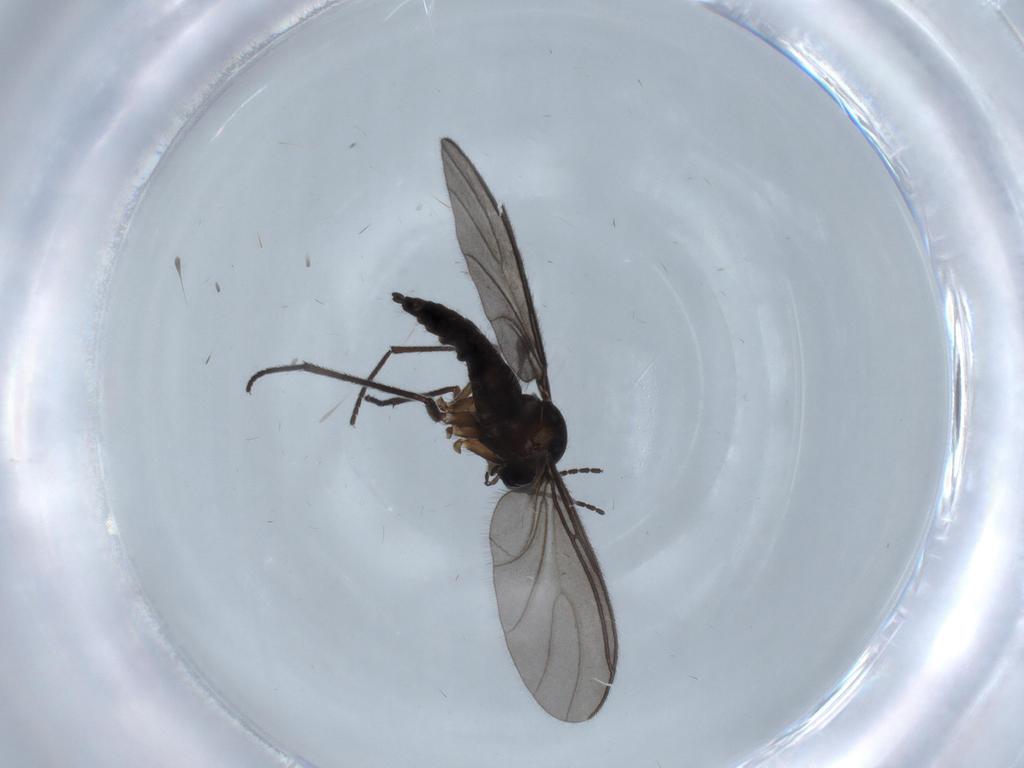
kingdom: Animalia
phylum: Arthropoda
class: Insecta
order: Diptera
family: Sciaridae
